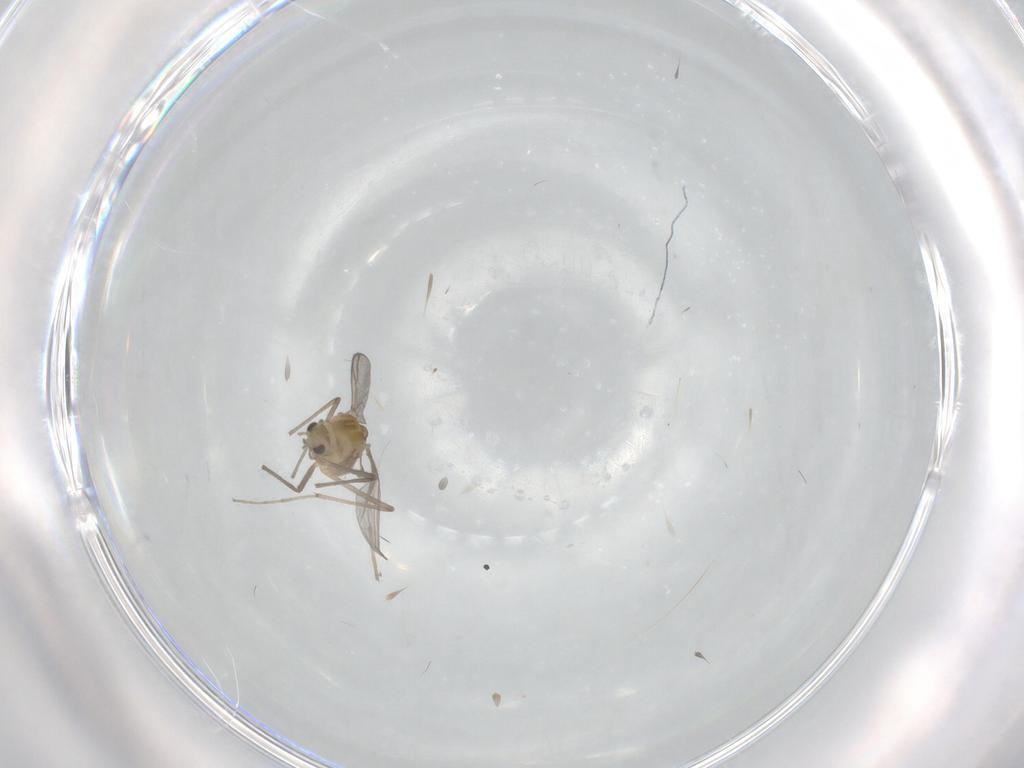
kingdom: Animalia
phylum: Arthropoda
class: Insecta
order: Diptera
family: Chironomidae
